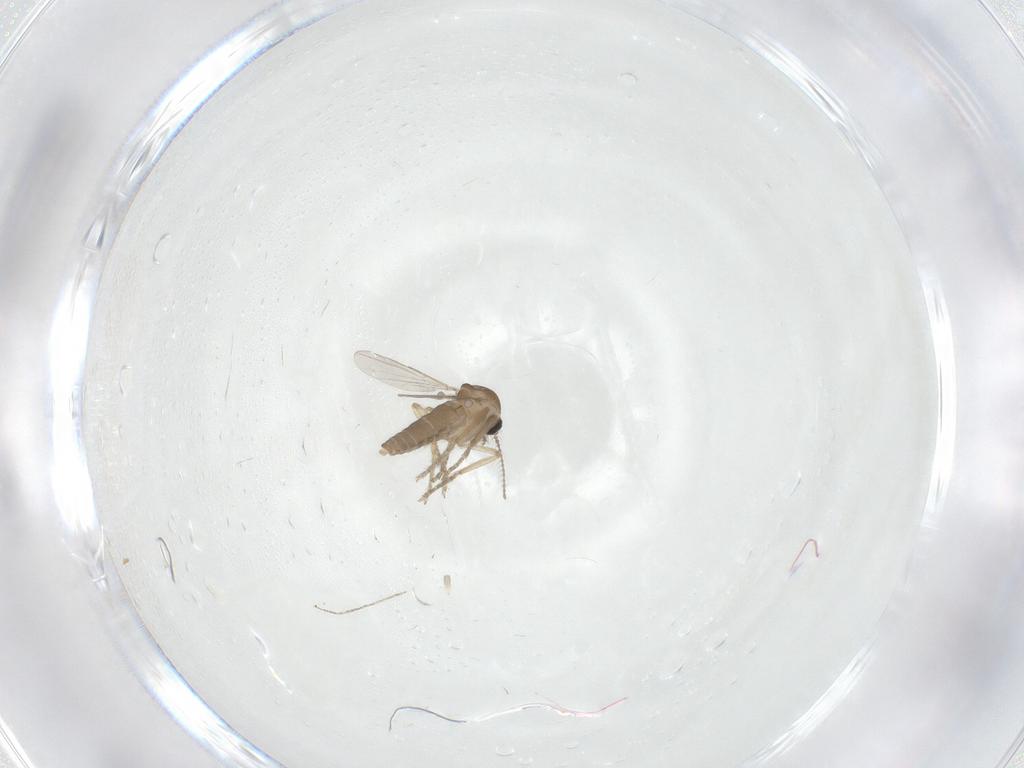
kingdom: Animalia
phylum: Arthropoda
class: Insecta
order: Diptera
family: Ceratopogonidae
